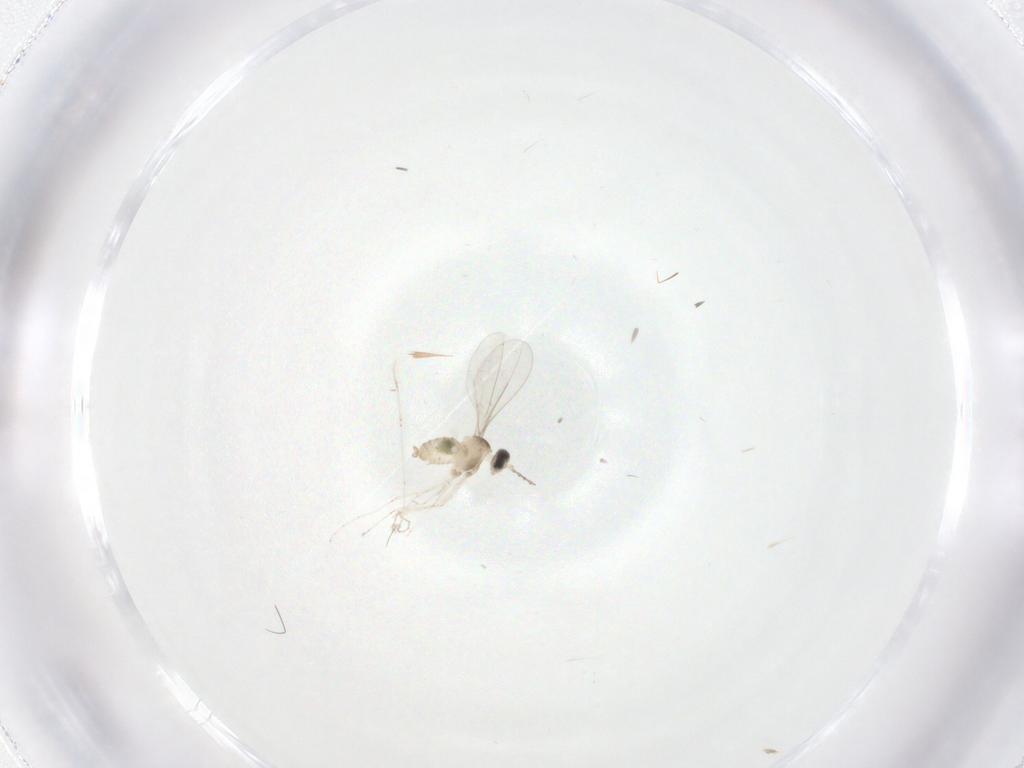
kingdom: Animalia
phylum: Arthropoda
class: Insecta
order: Diptera
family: Cecidomyiidae
